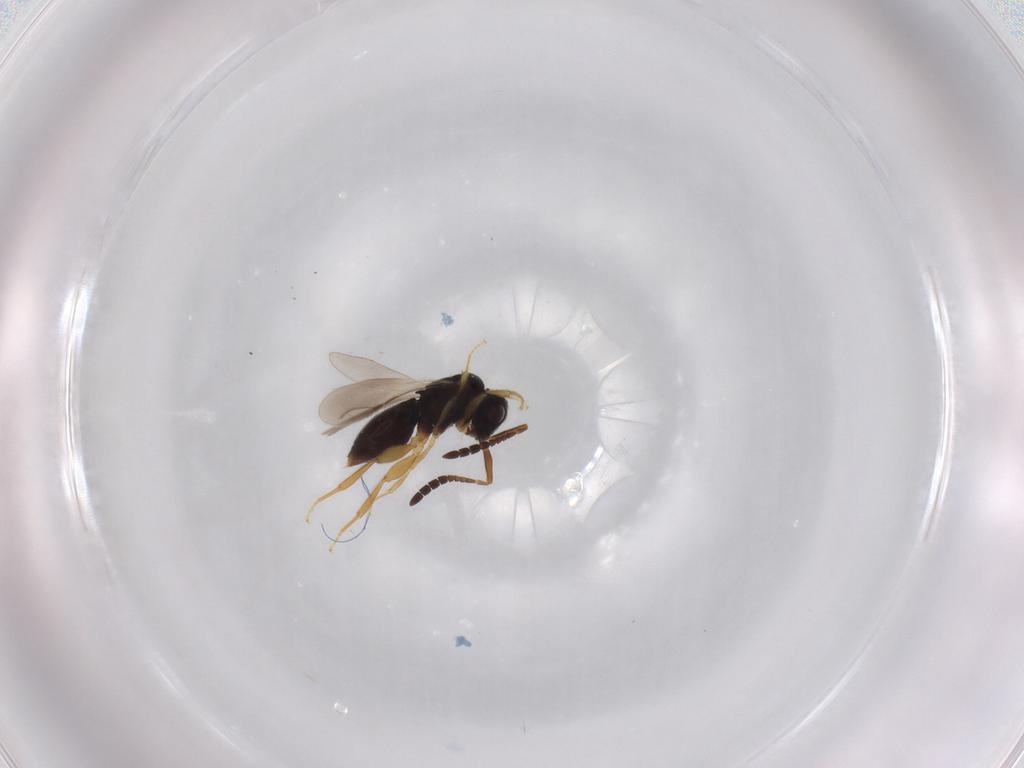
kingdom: Animalia
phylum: Arthropoda
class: Insecta
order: Hymenoptera
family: Ceraphronidae
